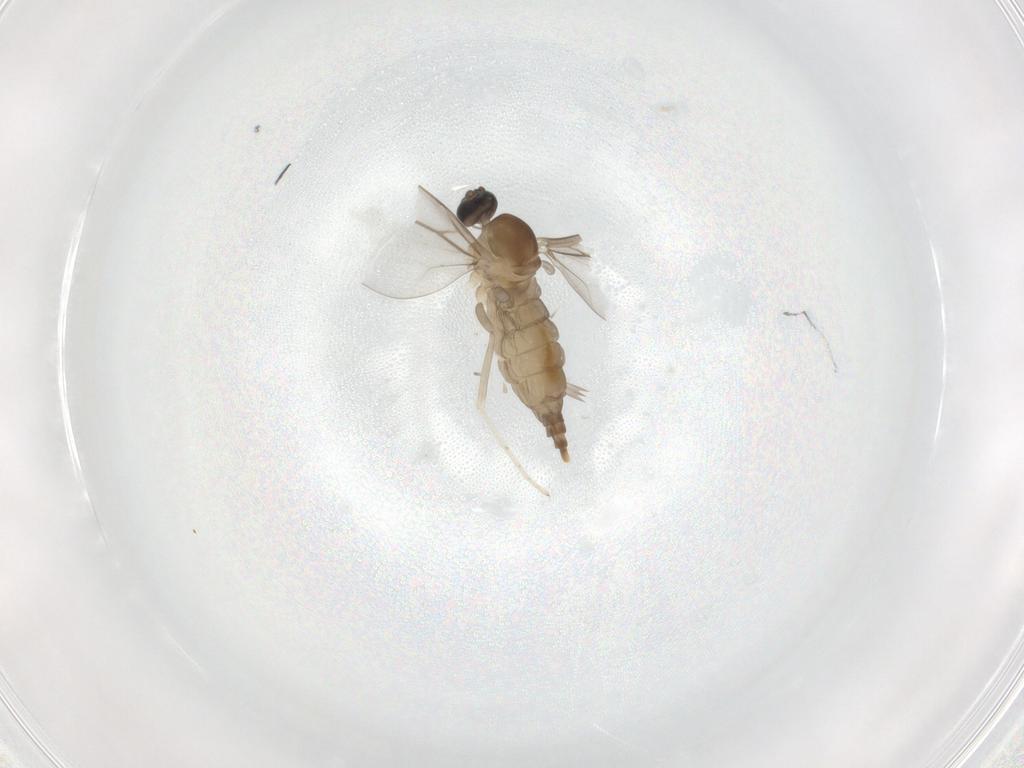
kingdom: Animalia
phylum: Arthropoda
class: Insecta
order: Diptera
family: Cecidomyiidae
